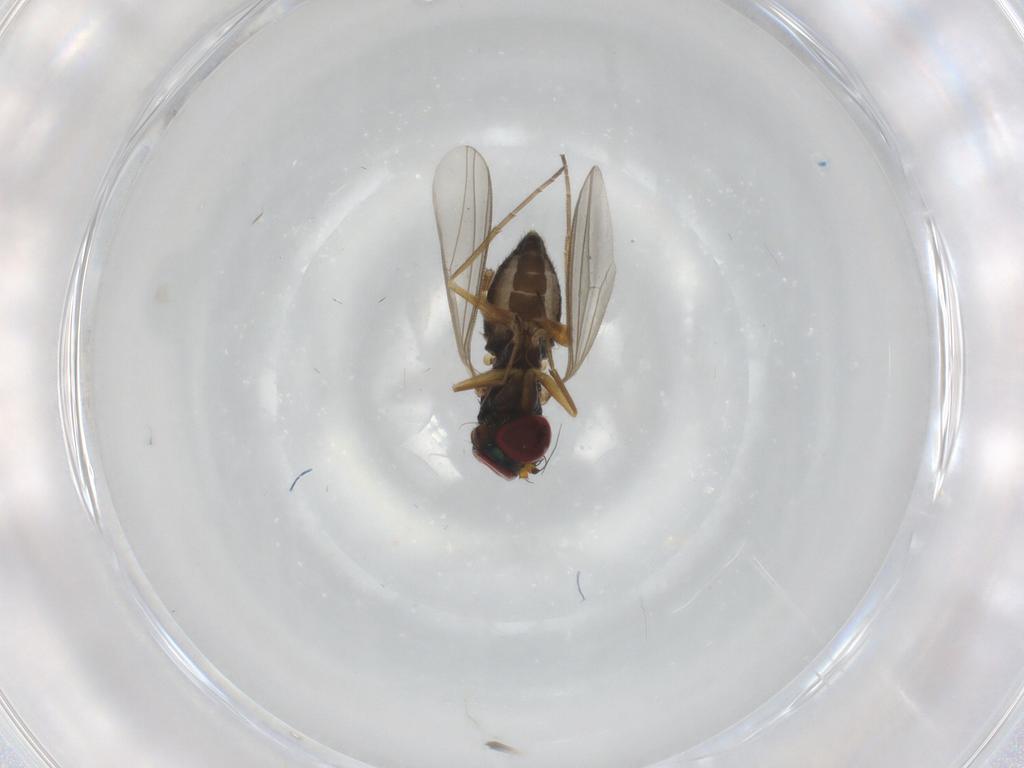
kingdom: Animalia
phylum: Arthropoda
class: Insecta
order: Diptera
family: Dolichopodidae
